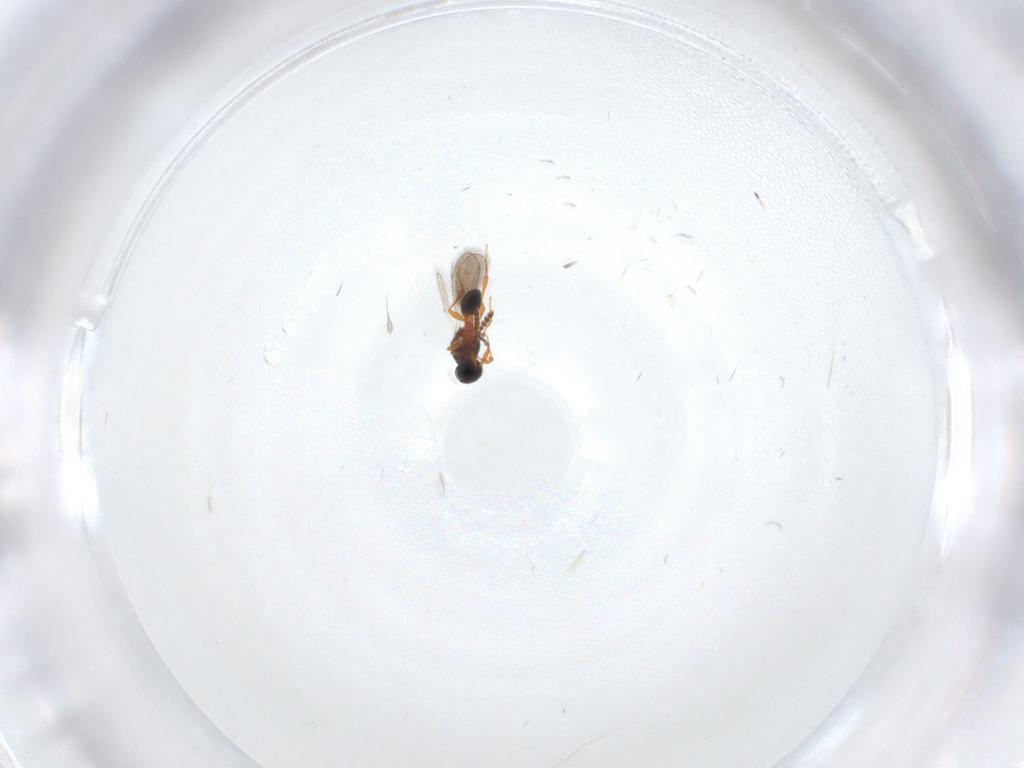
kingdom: Animalia
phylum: Arthropoda
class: Insecta
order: Hymenoptera
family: Platygastridae
